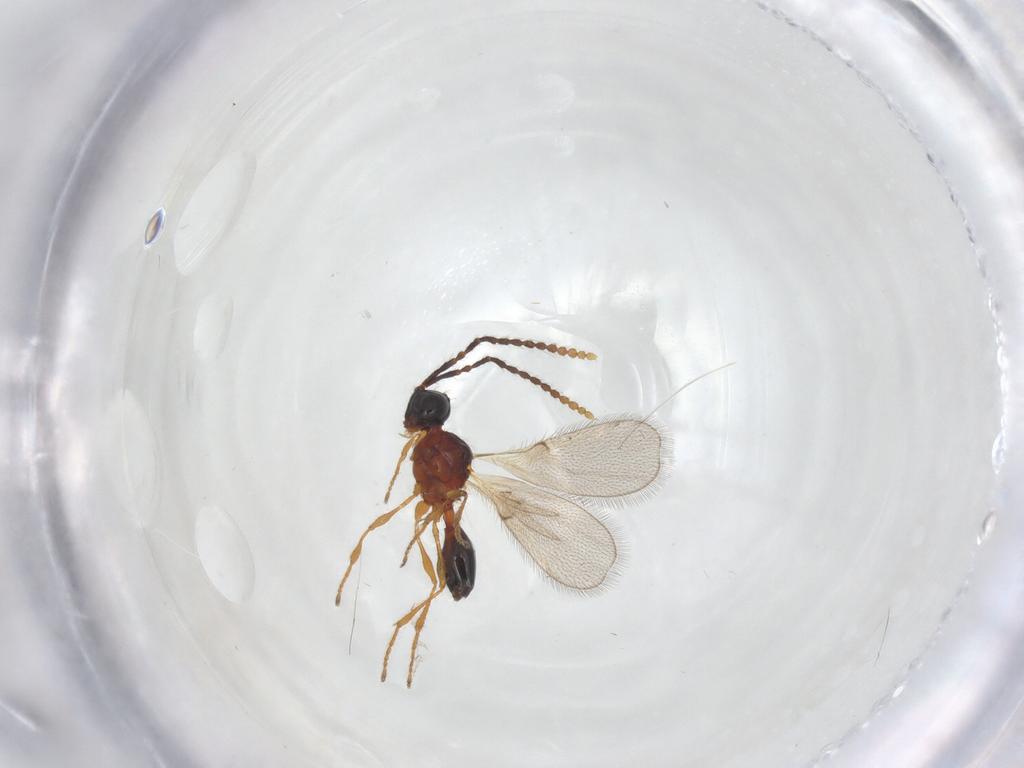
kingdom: Animalia
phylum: Arthropoda
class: Insecta
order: Hymenoptera
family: Diapriidae
